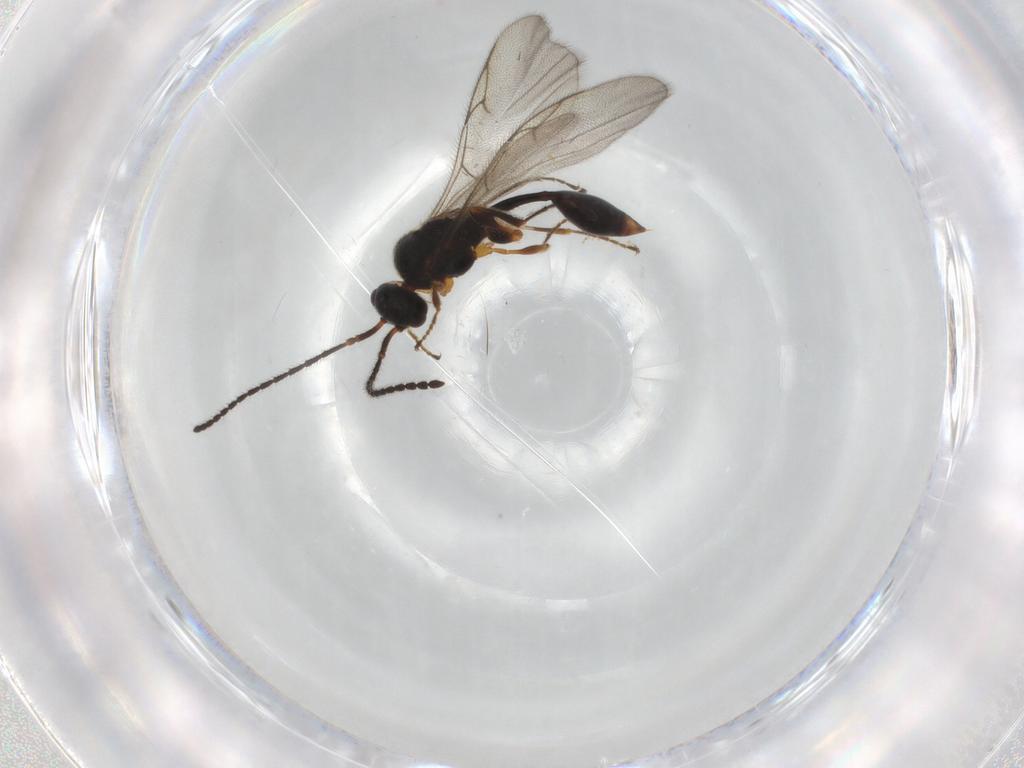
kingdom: Animalia
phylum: Arthropoda
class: Insecta
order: Hymenoptera
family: Diapriidae
